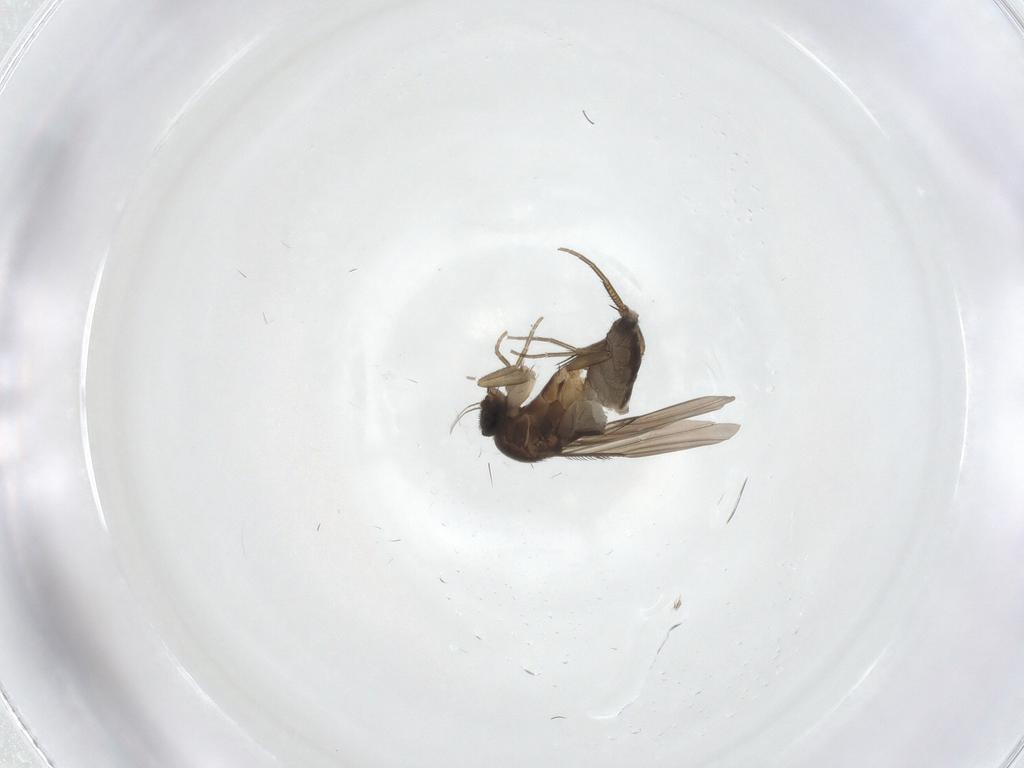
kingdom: Animalia
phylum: Arthropoda
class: Insecta
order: Diptera
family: Phoridae
